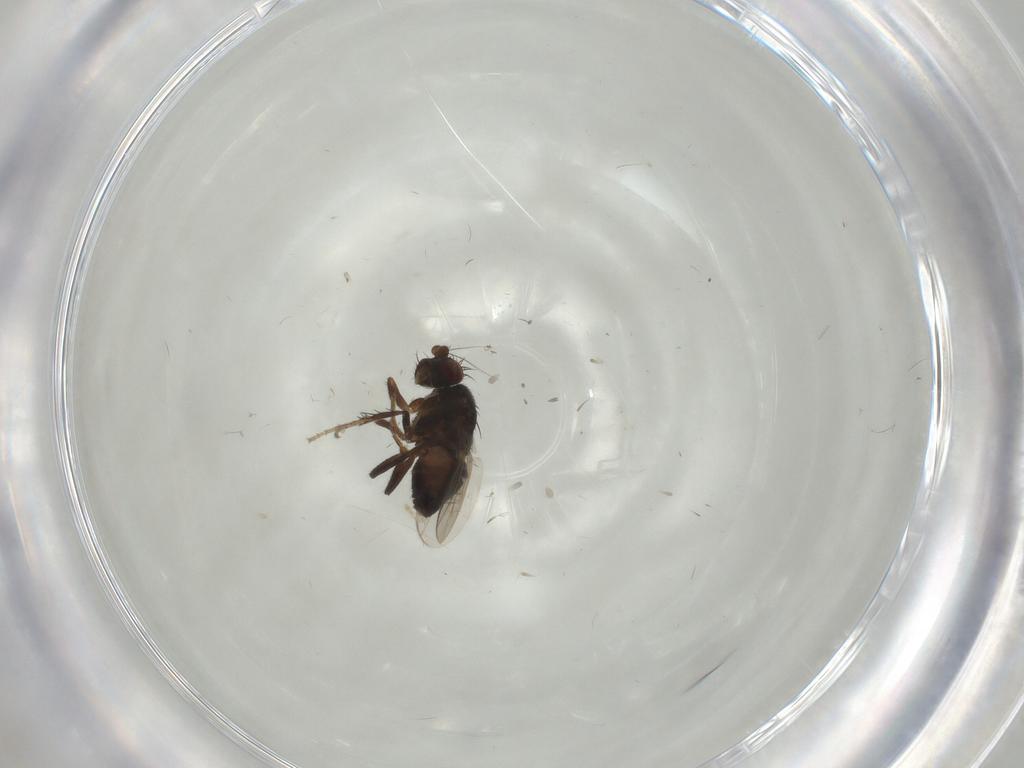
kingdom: Animalia
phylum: Arthropoda
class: Insecta
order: Diptera
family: Sphaeroceridae
